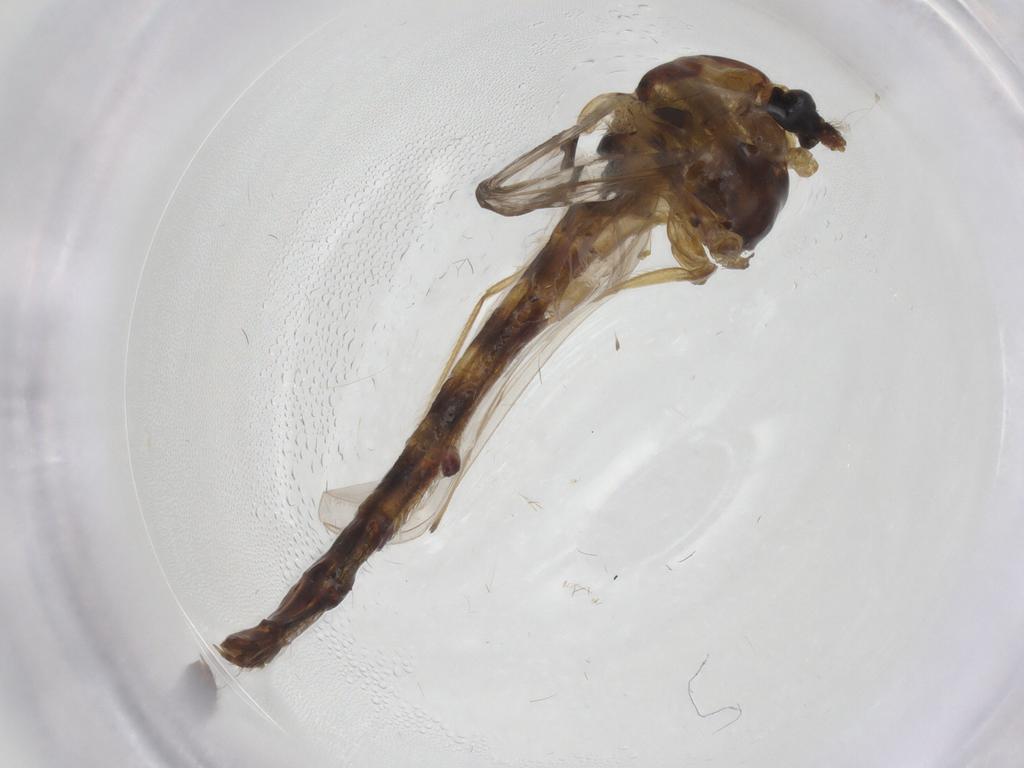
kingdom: Animalia
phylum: Arthropoda
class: Insecta
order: Diptera
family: Chironomidae
